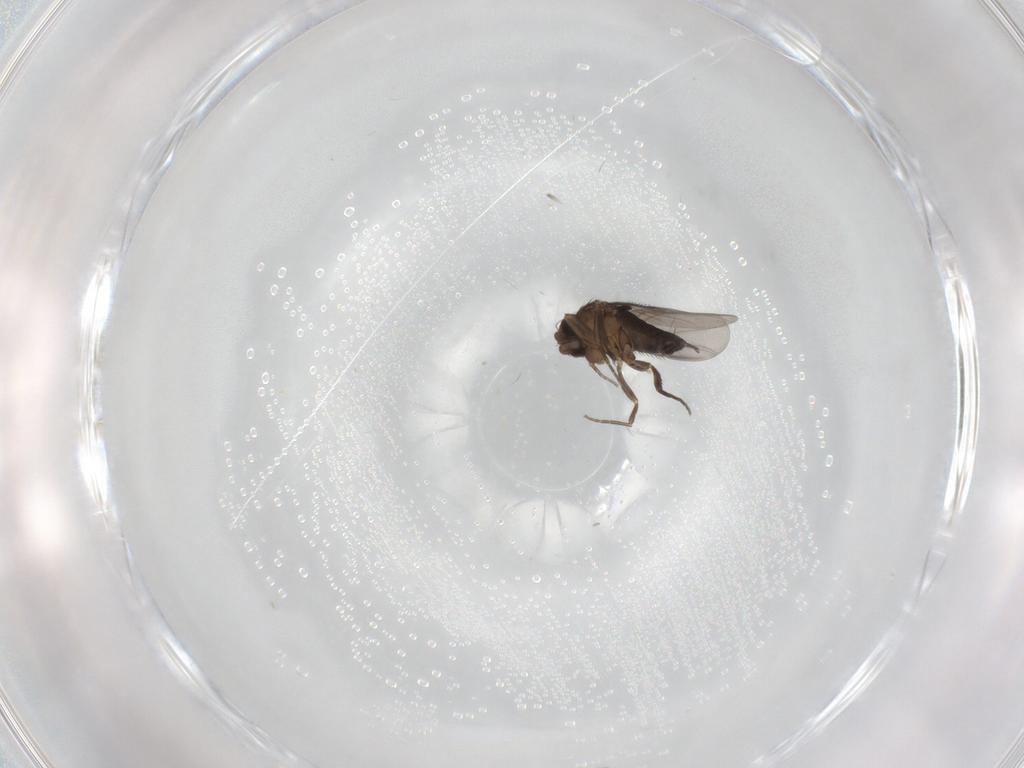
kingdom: Animalia
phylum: Arthropoda
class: Insecta
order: Diptera
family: Phoridae
